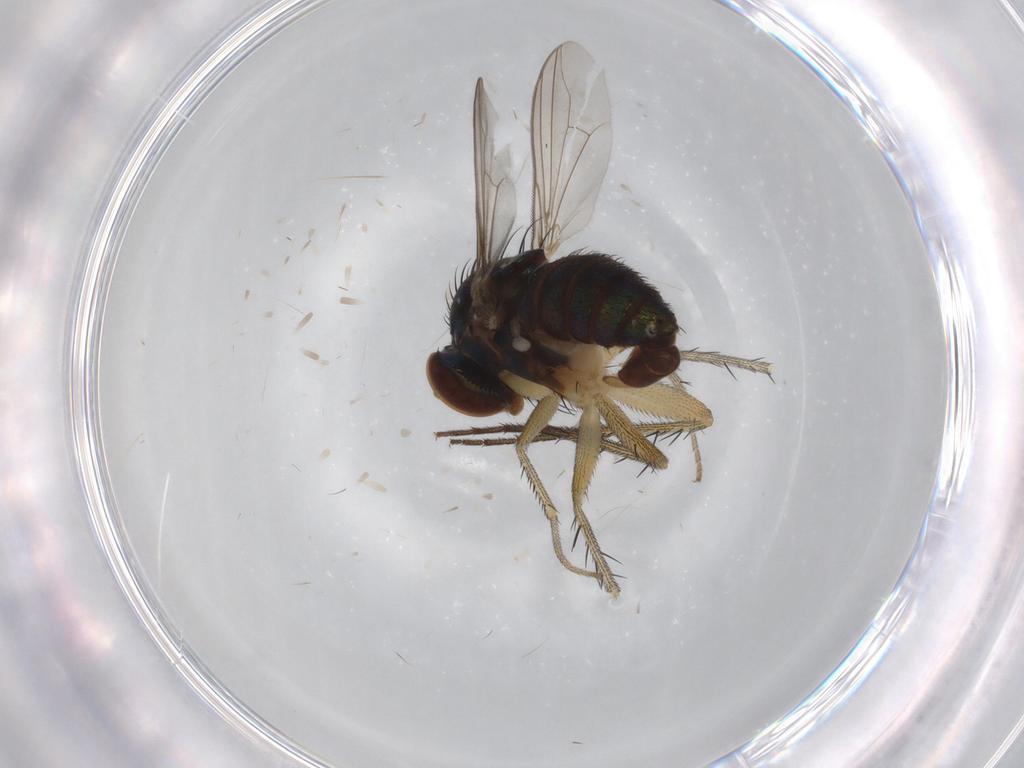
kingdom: Animalia
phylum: Arthropoda
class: Insecta
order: Diptera
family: Dolichopodidae
